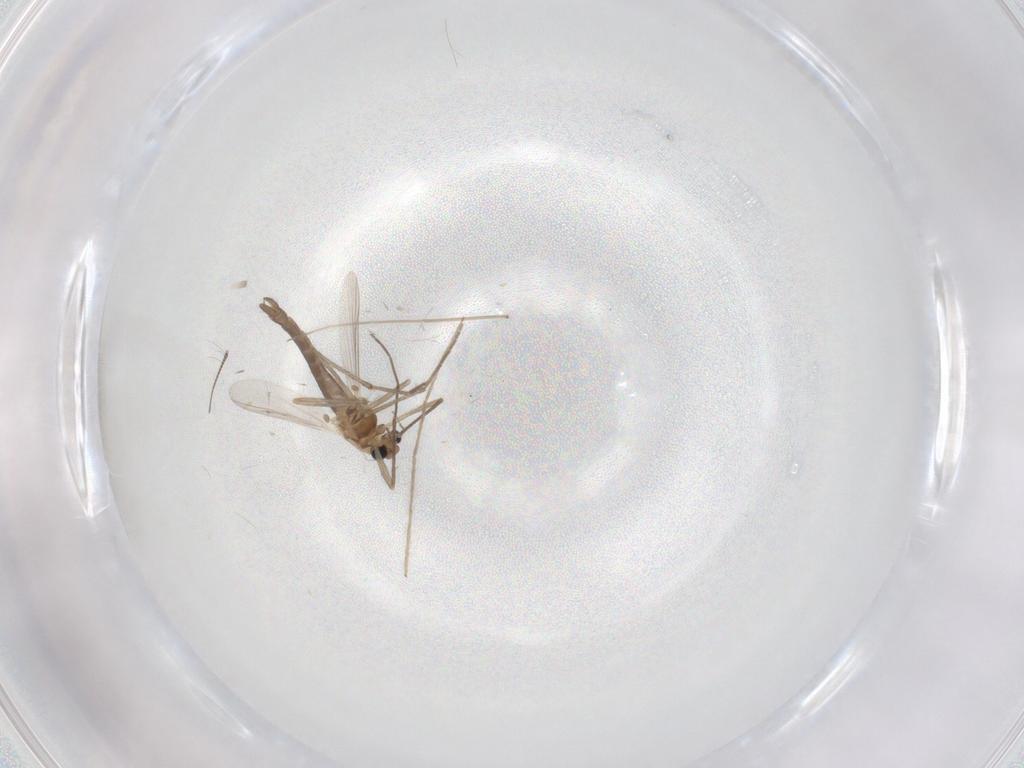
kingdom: Animalia
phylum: Arthropoda
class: Insecta
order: Diptera
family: Chironomidae
